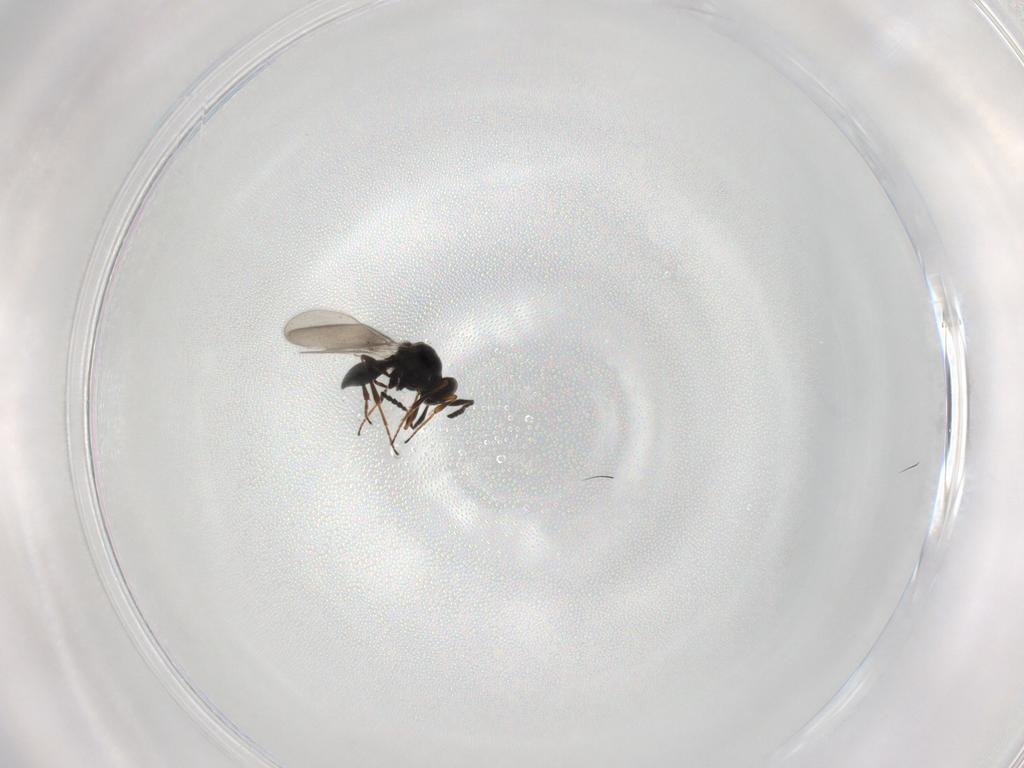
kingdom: Animalia
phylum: Arthropoda
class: Insecta
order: Hymenoptera
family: Platygastridae
